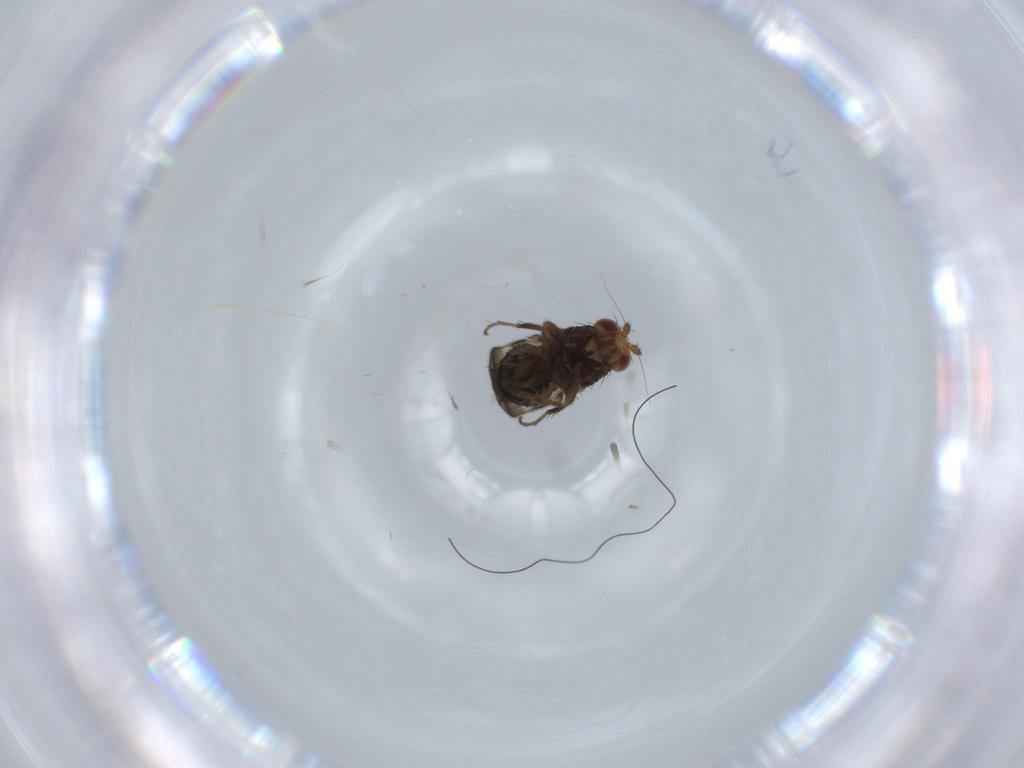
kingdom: Animalia
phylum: Arthropoda
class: Insecta
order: Diptera
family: Sphaeroceridae
